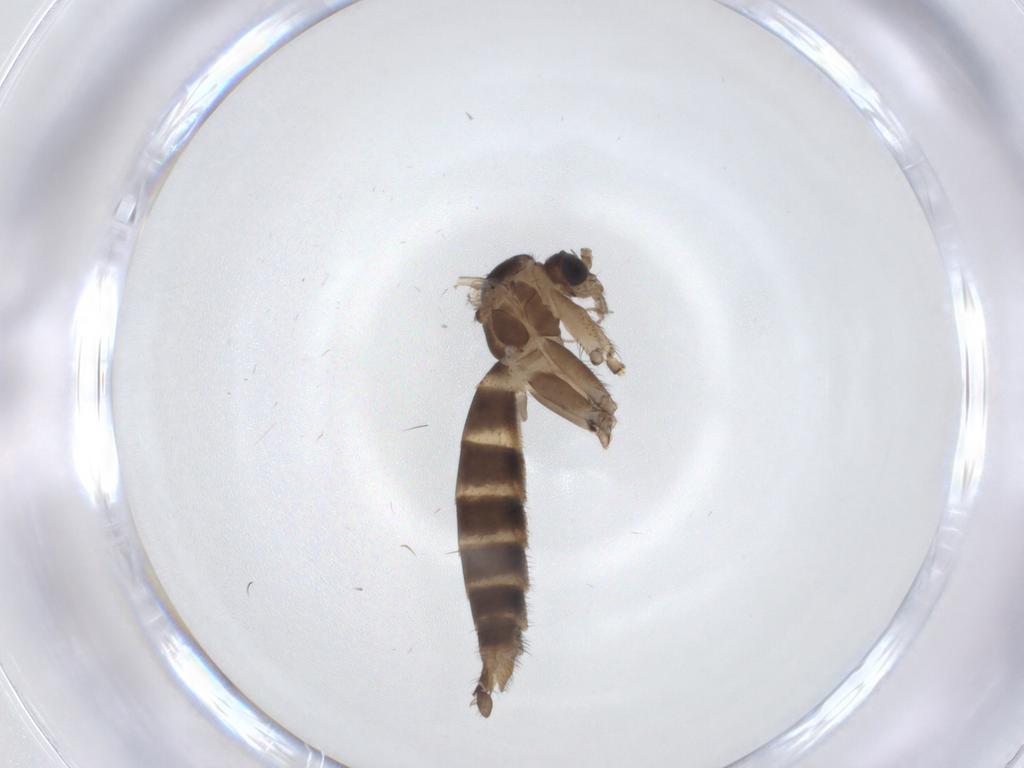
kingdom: Animalia
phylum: Arthropoda
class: Insecta
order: Diptera
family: Mycetophilidae
